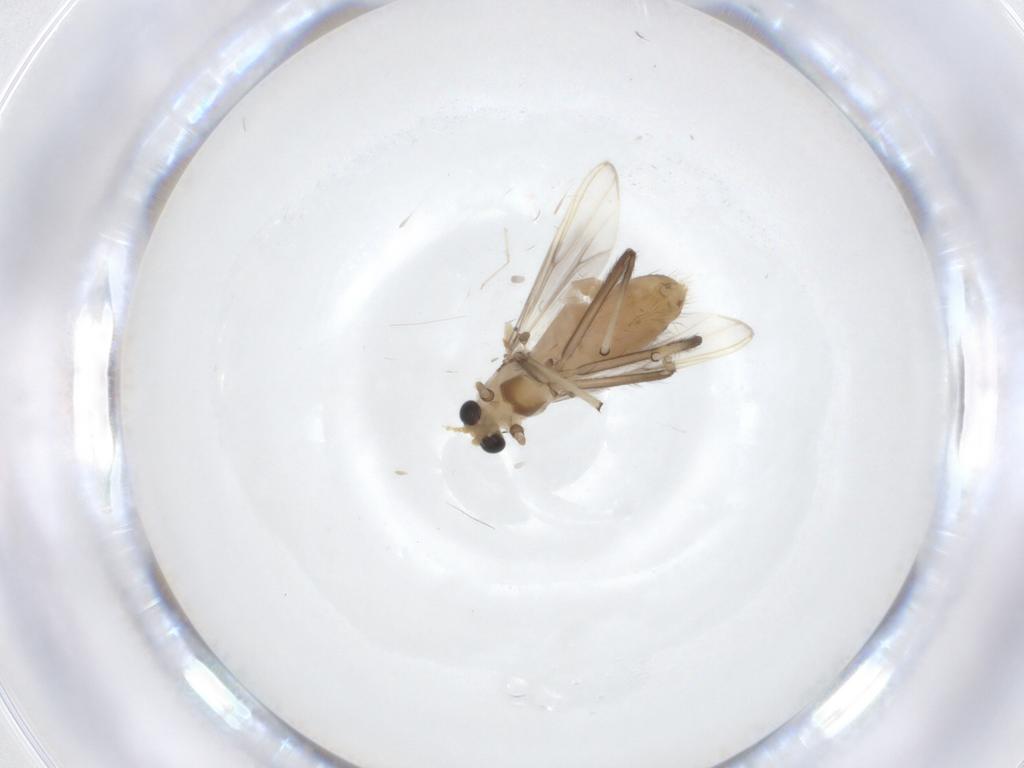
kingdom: Animalia
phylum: Arthropoda
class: Insecta
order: Diptera
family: Chironomidae
